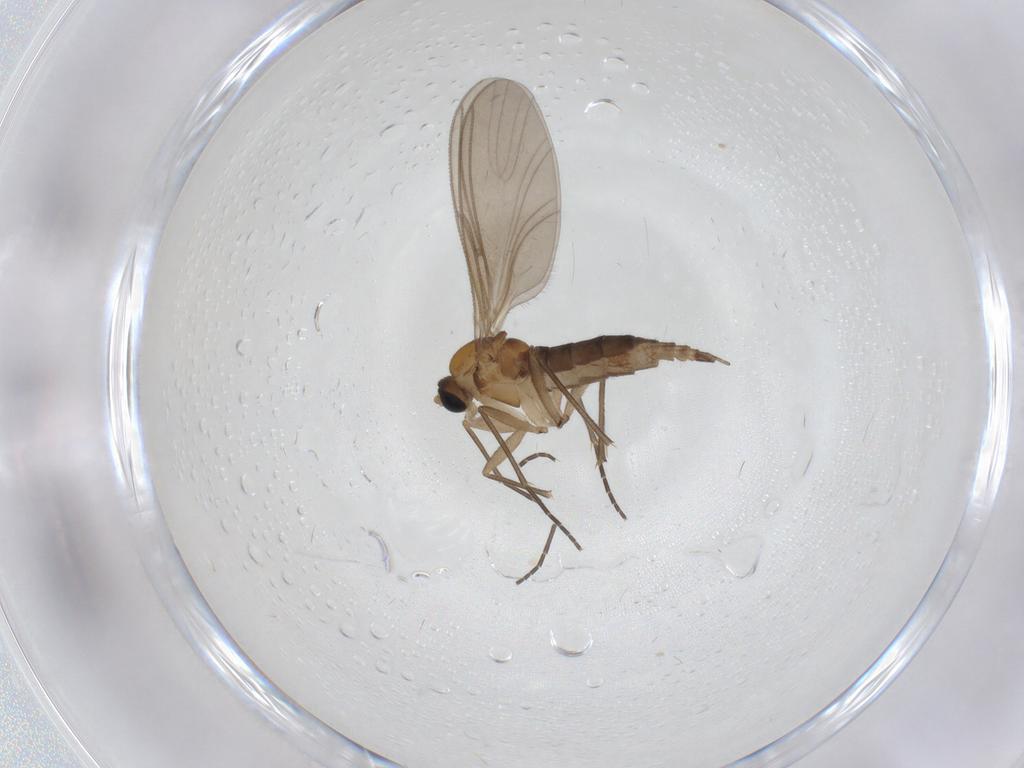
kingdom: Animalia
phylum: Arthropoda
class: Insecta
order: Diptera
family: Sciaridae
